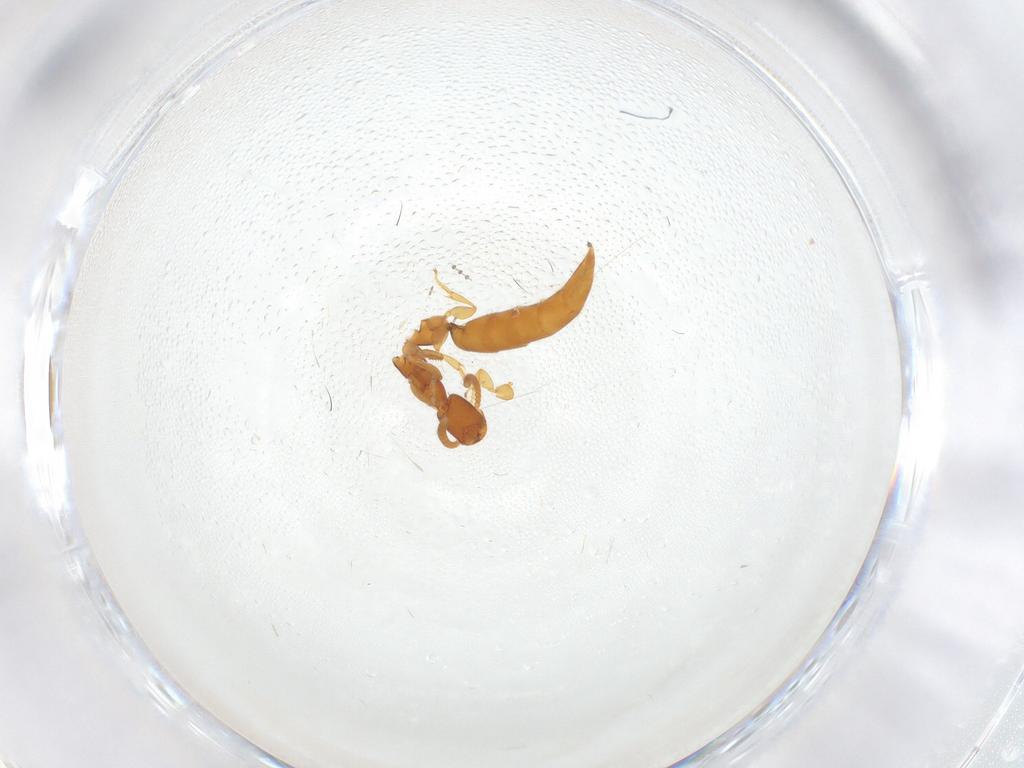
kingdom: Animalia
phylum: Arthropoda
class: Insecta
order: Hymenoptera
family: Bethylidae
